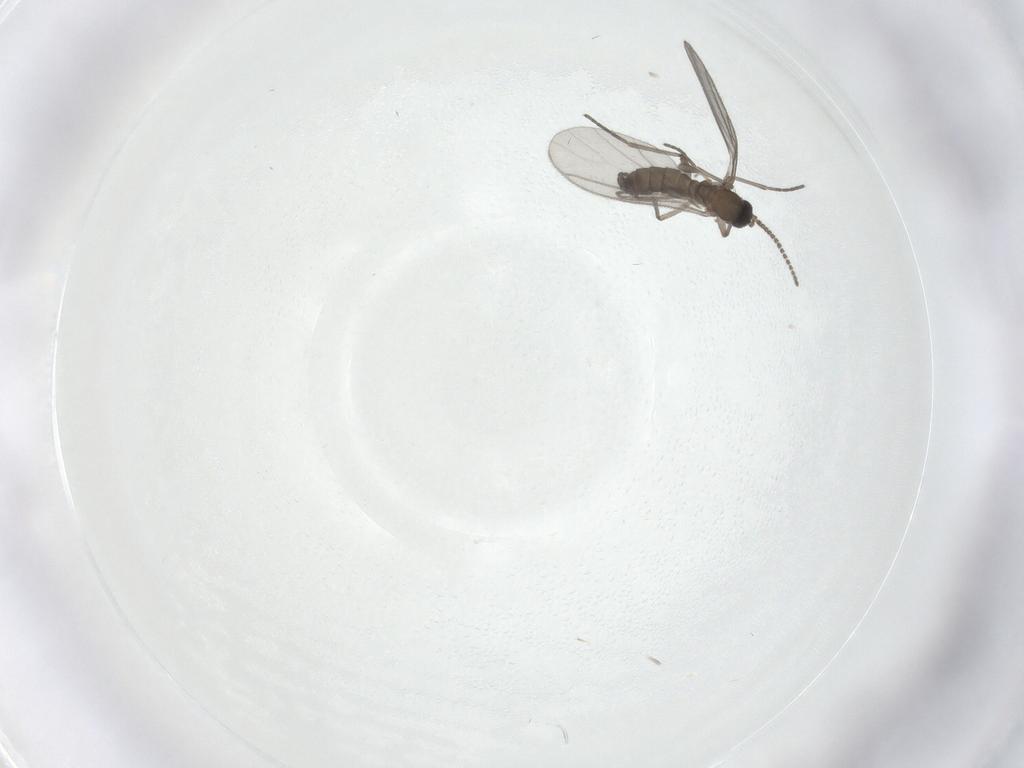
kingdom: Animalia
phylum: Arthropoda
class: Insecta
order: Diptera
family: Sciaridae
